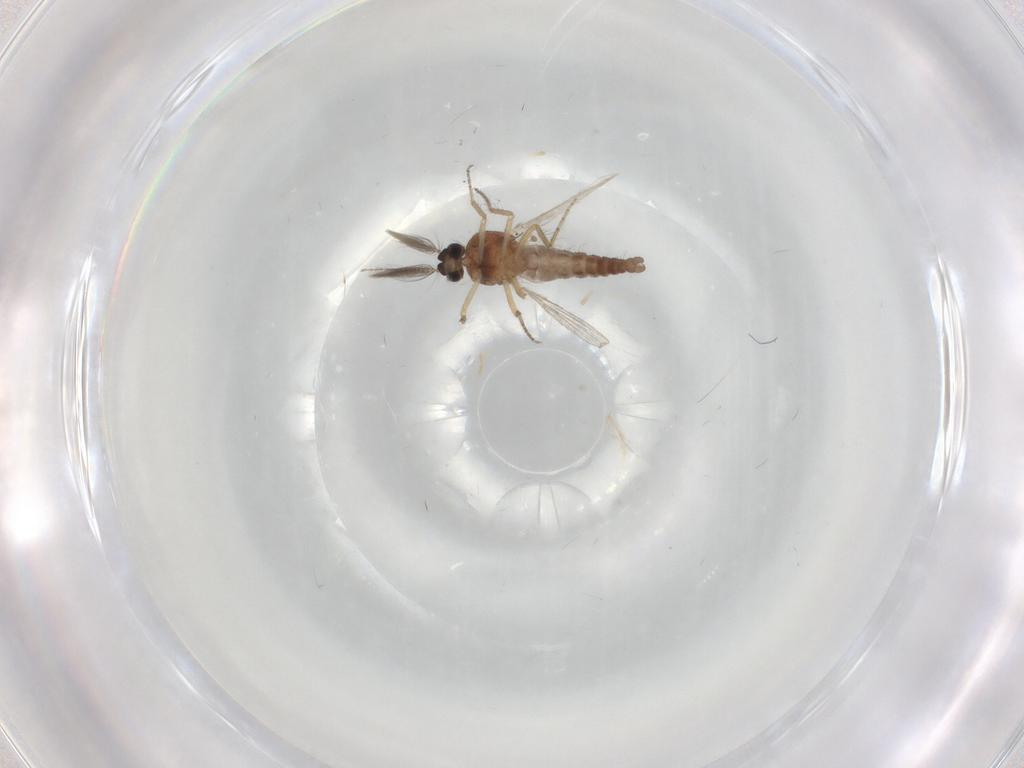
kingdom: Animalia
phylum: Arthropoda
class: Insecta
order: Diptera
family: Ceratopogonidae
